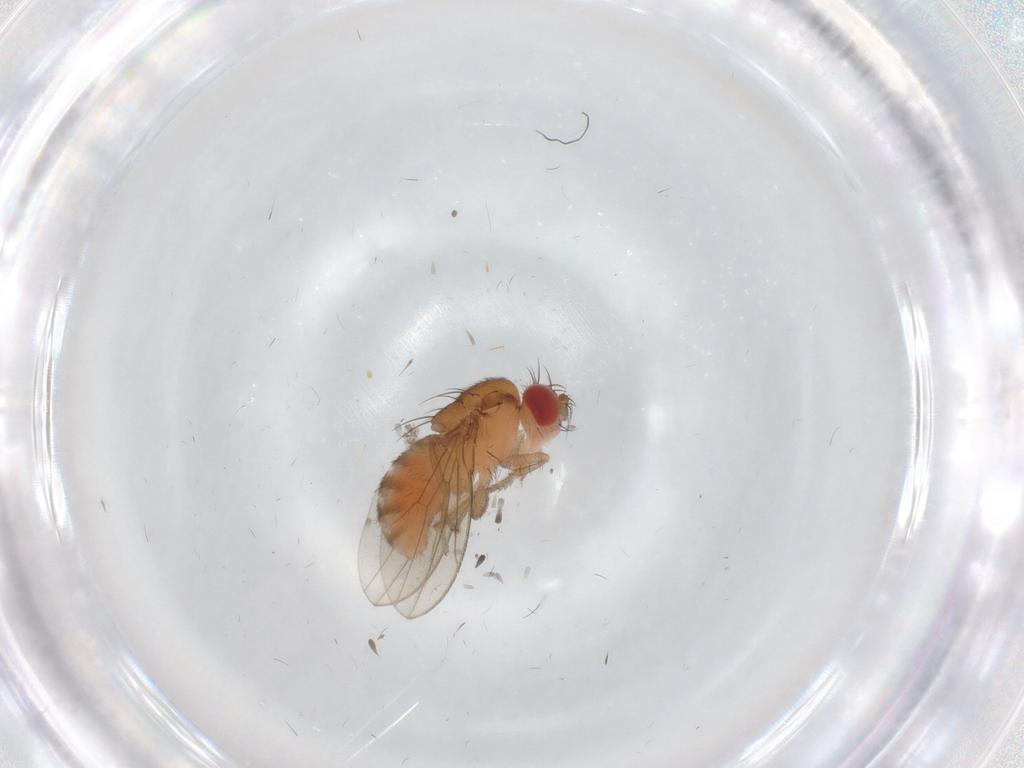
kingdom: Animalia
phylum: Arthropoda
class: Insecta
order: Diptera
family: Drosophilidae
